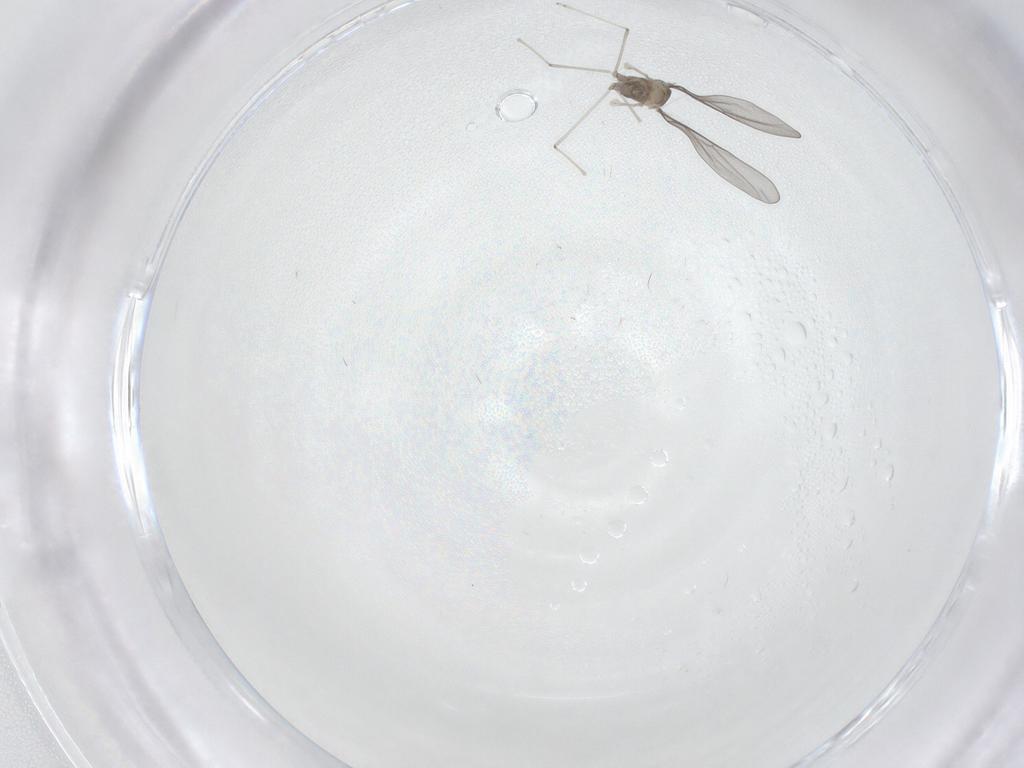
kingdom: Animalia
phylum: Arthropoda
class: Insecta
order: Diptera
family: Cecidomyiidae
